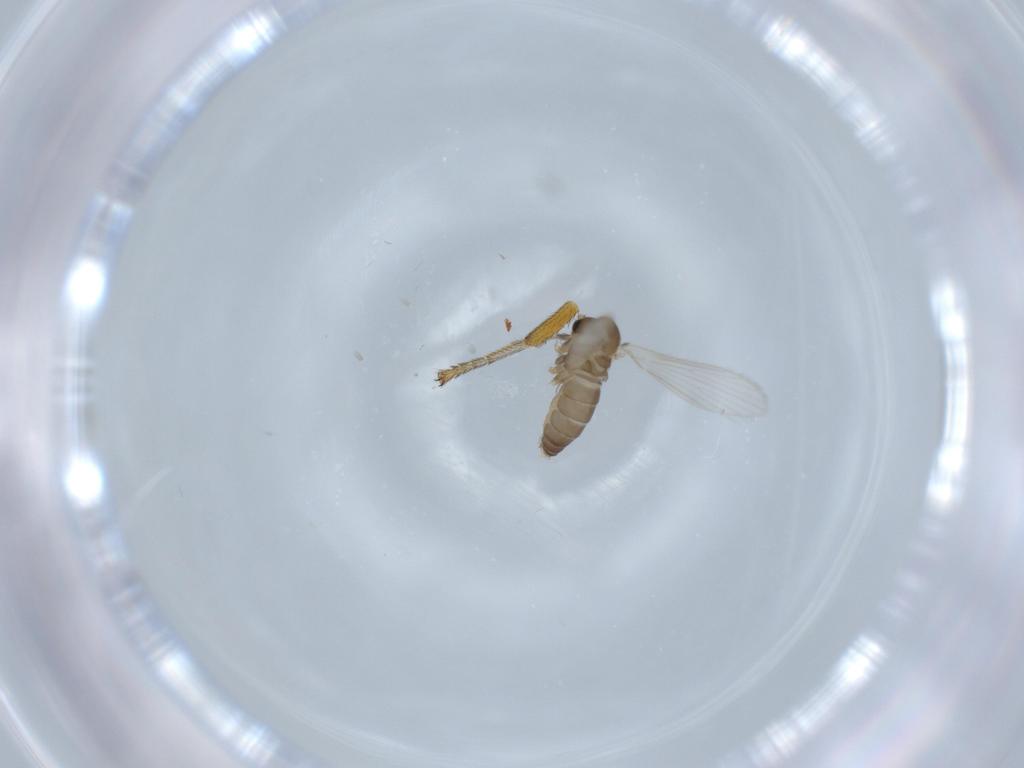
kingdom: Animalia
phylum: Arthropoda
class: Insecta
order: Diptera
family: Psychodidae
